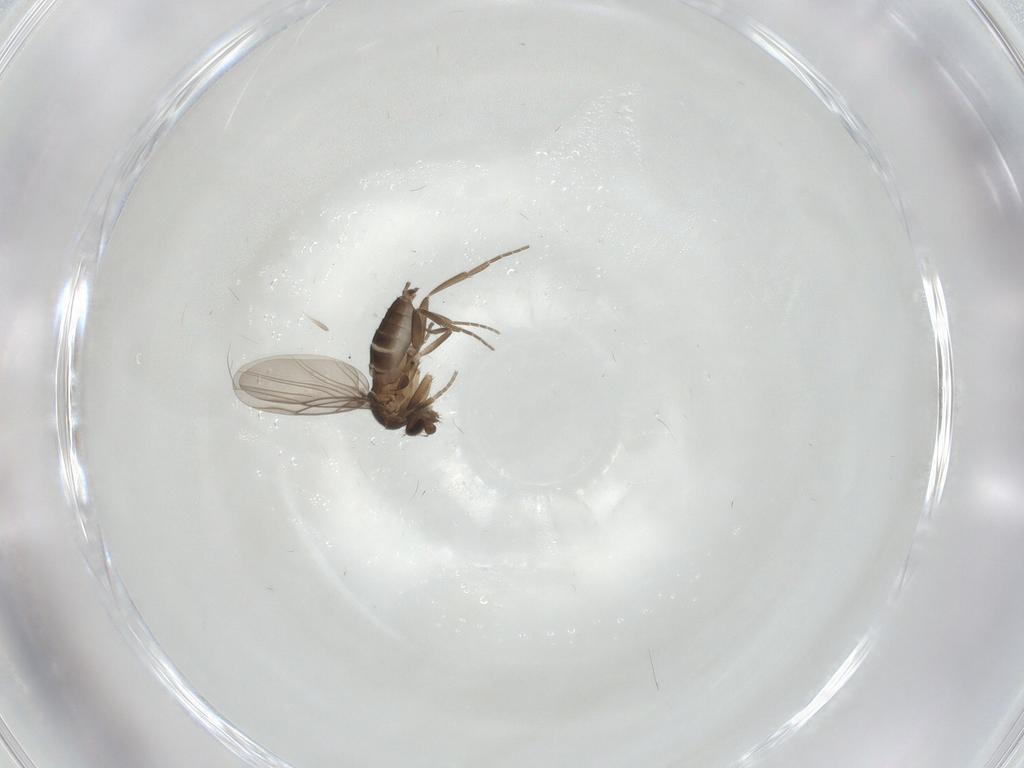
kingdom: Animalia
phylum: Arthropoda
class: Insecta
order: Diptera
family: Phoridae
